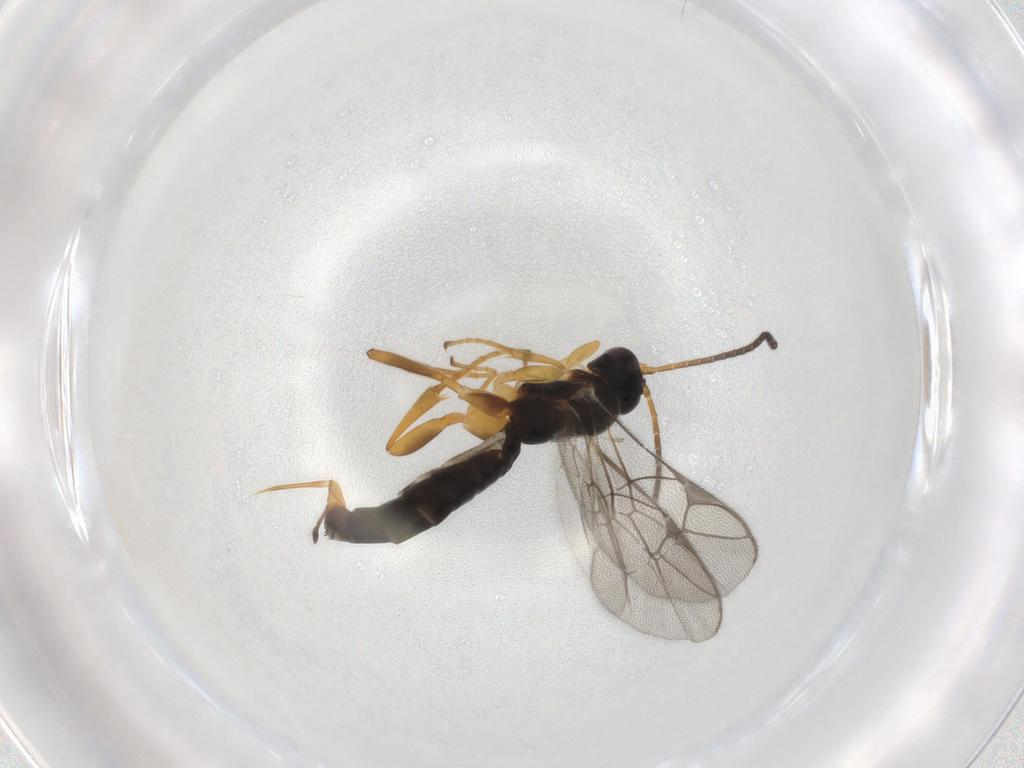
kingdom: Animalia
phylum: Arthropoda
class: Insecta
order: Hymenoptera
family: Ichneumonidae
